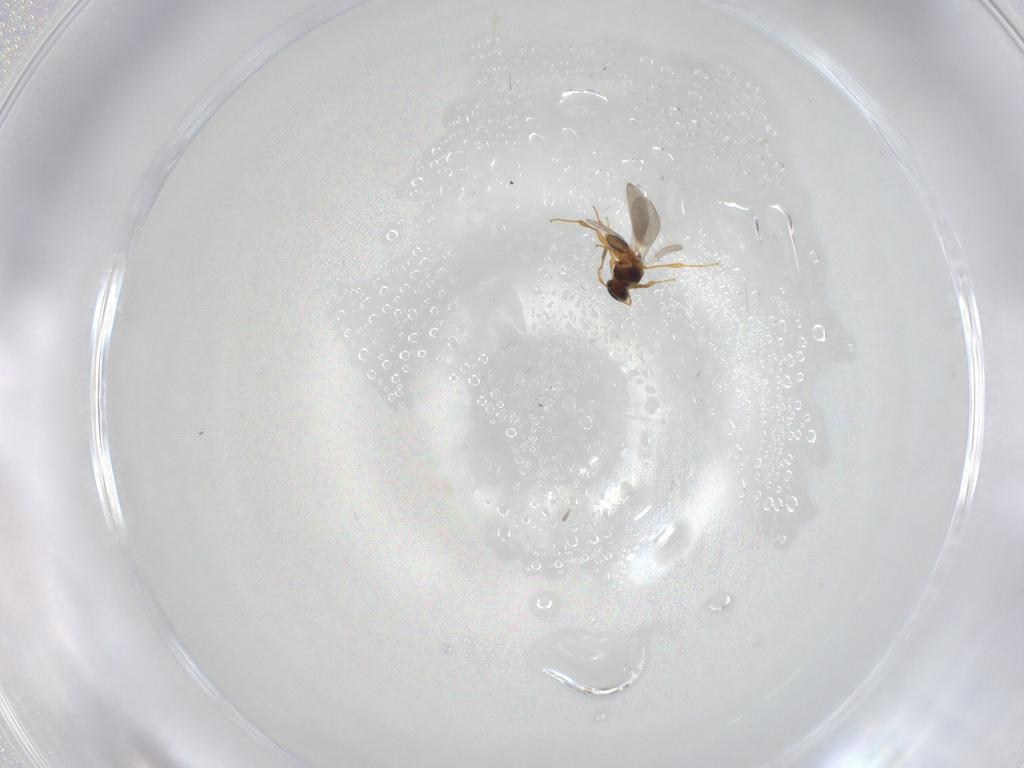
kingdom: Animalia
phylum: Arthropoda
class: Insecta
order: Hymenoptera
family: Platygastridae
